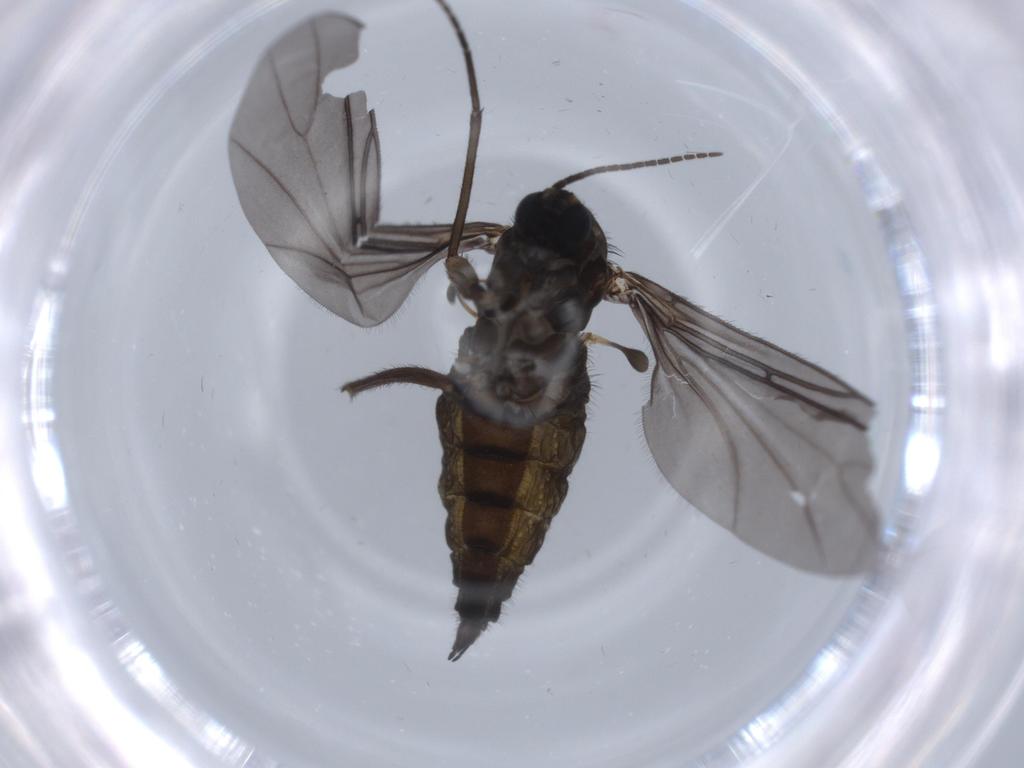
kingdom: Animalia
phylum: Arthropoda
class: Insecta
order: Diptera
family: Sciaridae
